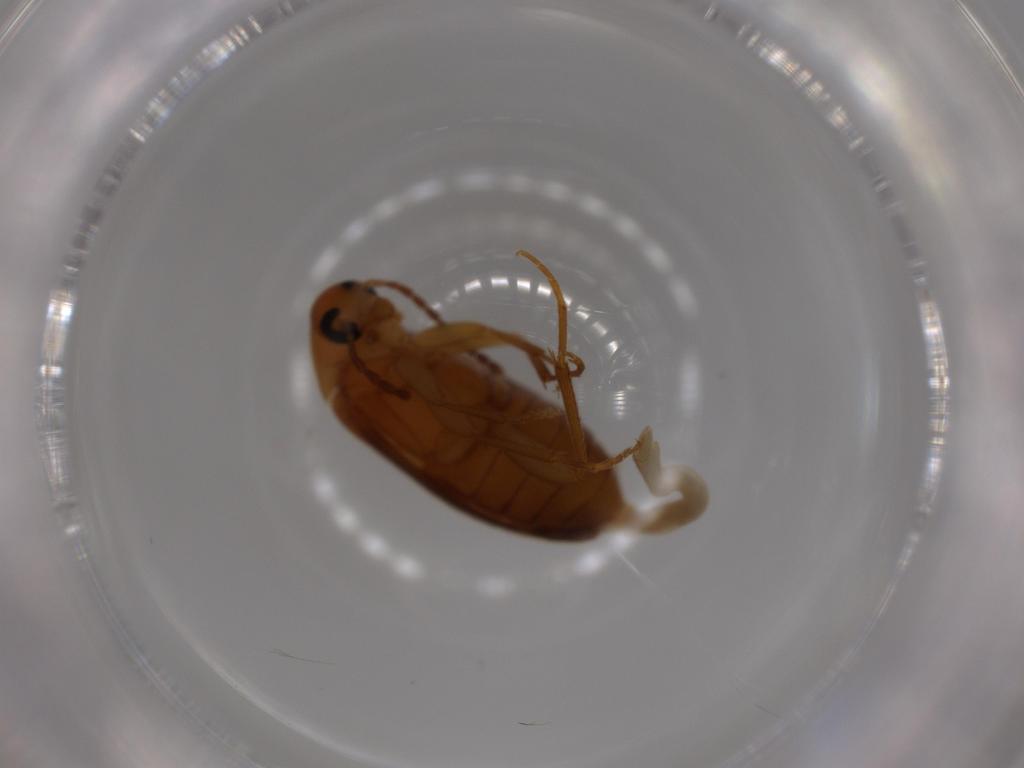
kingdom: Animalia
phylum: Arthropoda
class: Insecta
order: Coleoptera
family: Scraptiidae
